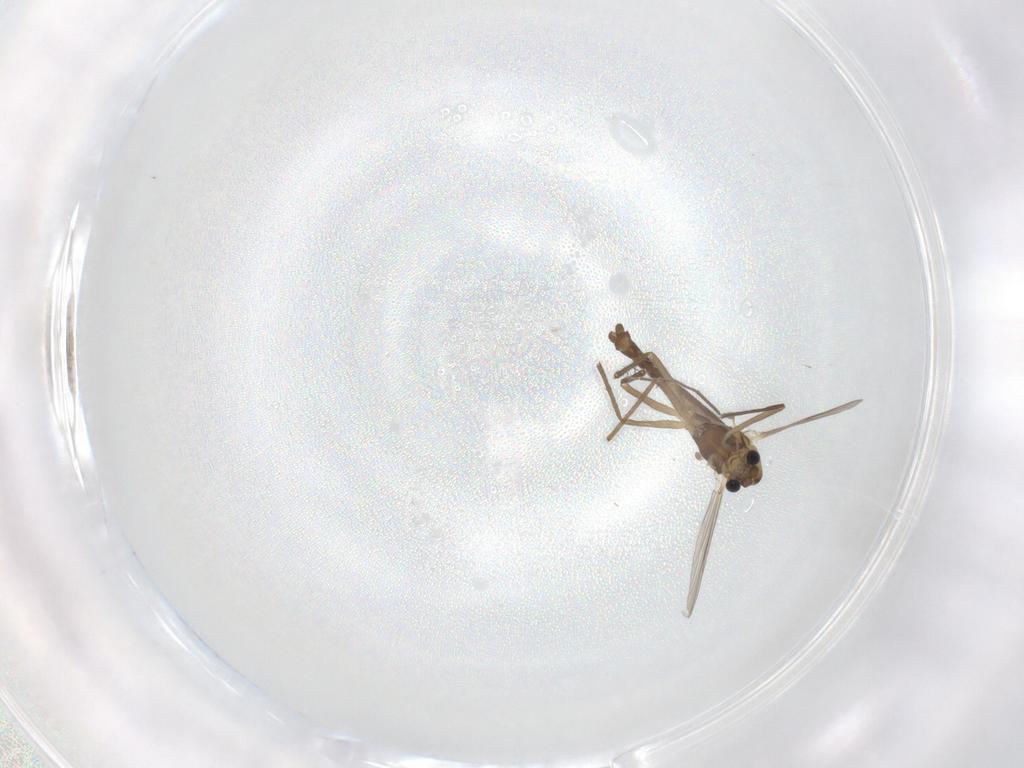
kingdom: Animalia
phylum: Arthropoda
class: Insecta
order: Diptera
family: Chironomidae
